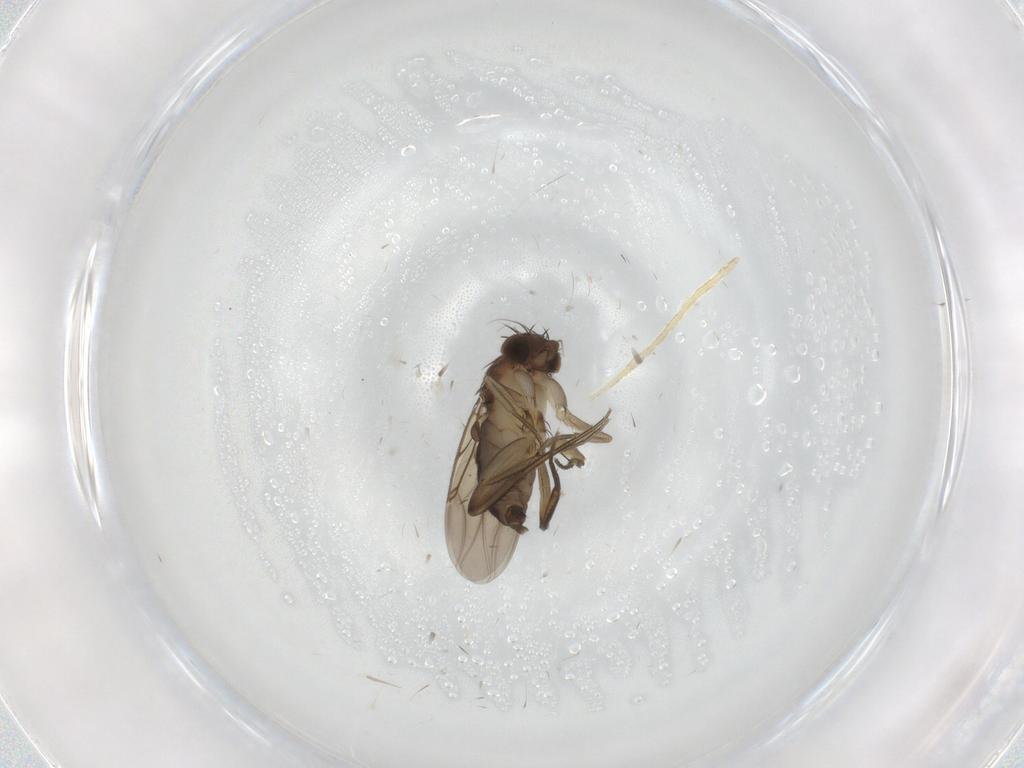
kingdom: Animalia
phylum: Arthropoda
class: Insecta
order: Diptera
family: Phoridae
